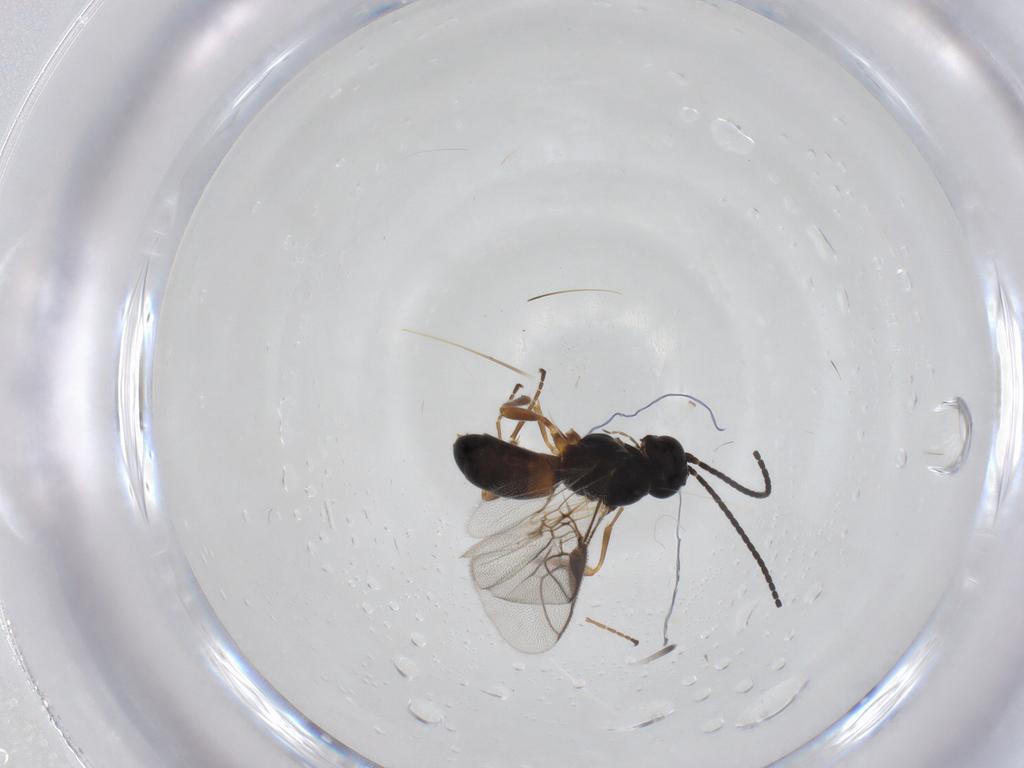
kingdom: Animalia
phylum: Arthropoda
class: Insecta
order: Hymenoptera
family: Braconidae
